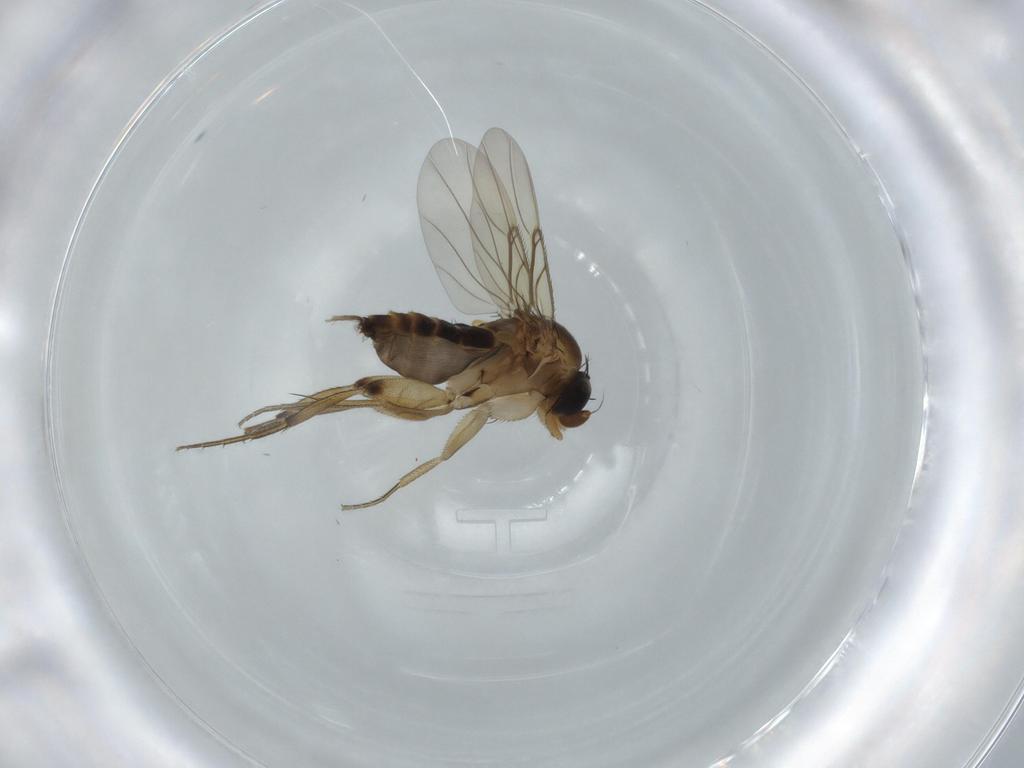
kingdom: Animalia
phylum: Arthropoda
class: Insecta
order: Diptera
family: Phoridae
